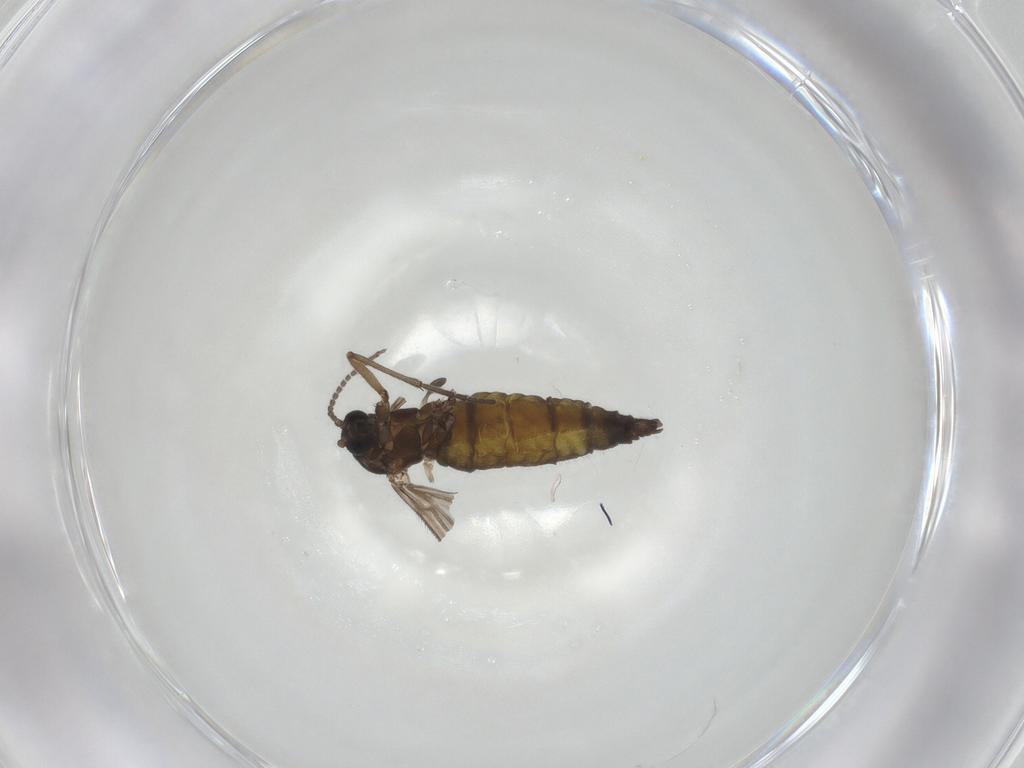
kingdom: Animalia
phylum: Arthropoda
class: Insecta
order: Diptera
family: Sciaridae
